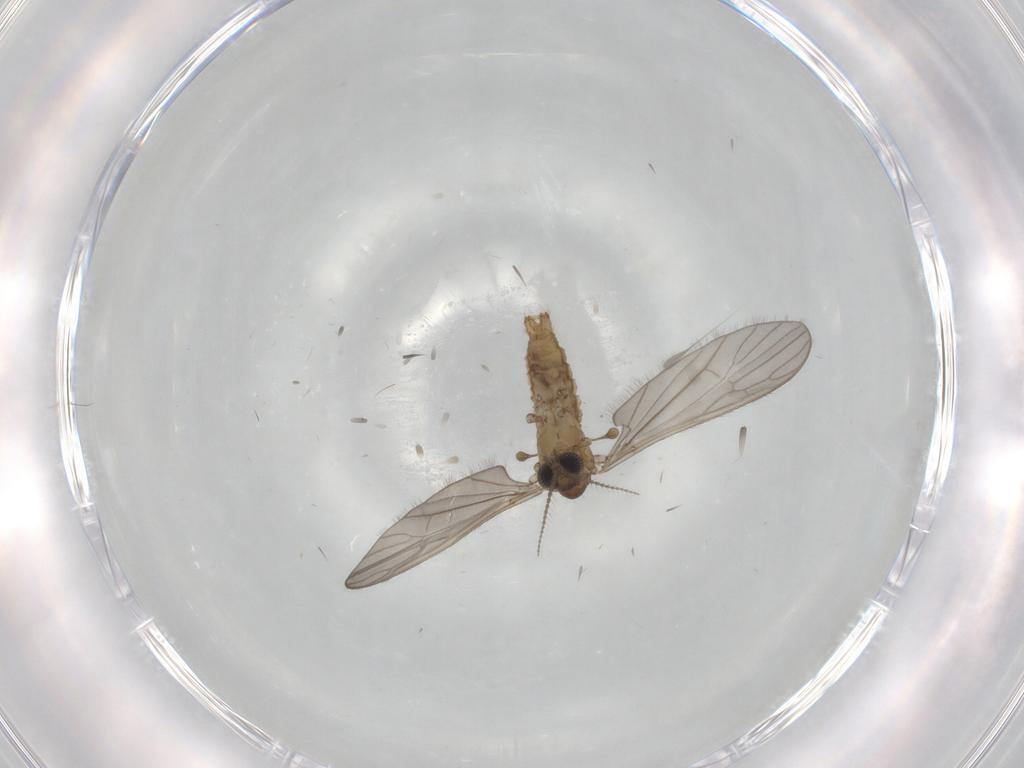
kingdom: Animalia
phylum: Arthropoda
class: Insecta
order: Diptera
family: Limoniidae
